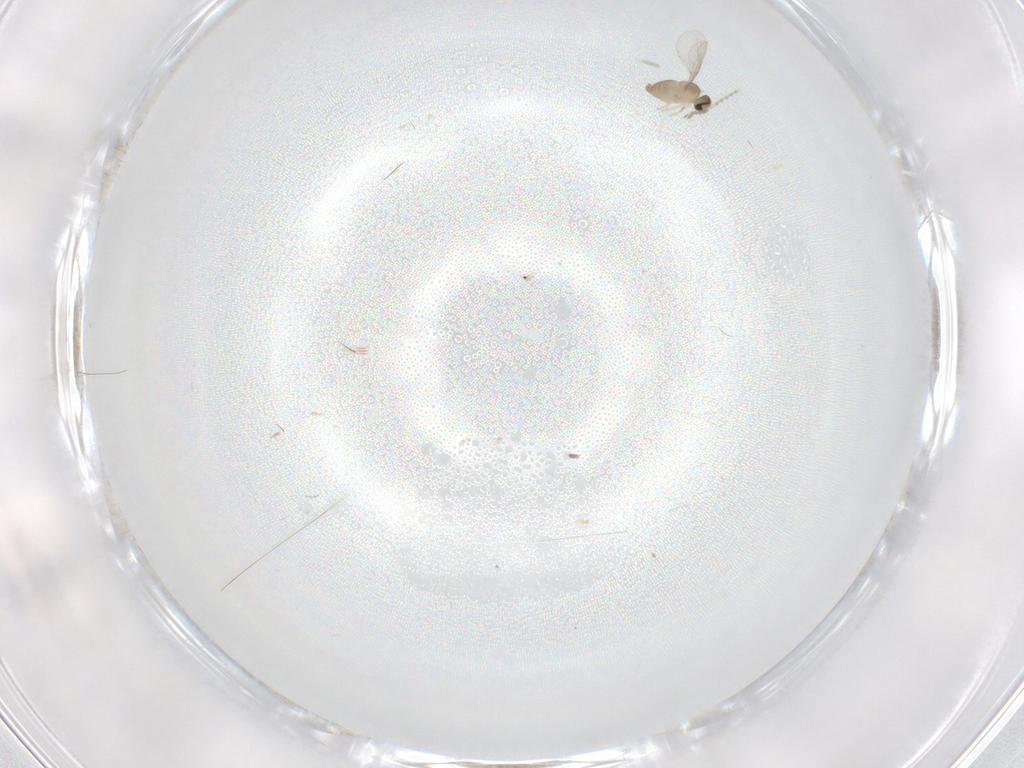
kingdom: Animalia
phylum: Arthropoda
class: Insecta
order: Diptera
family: Cecidomyiidae
